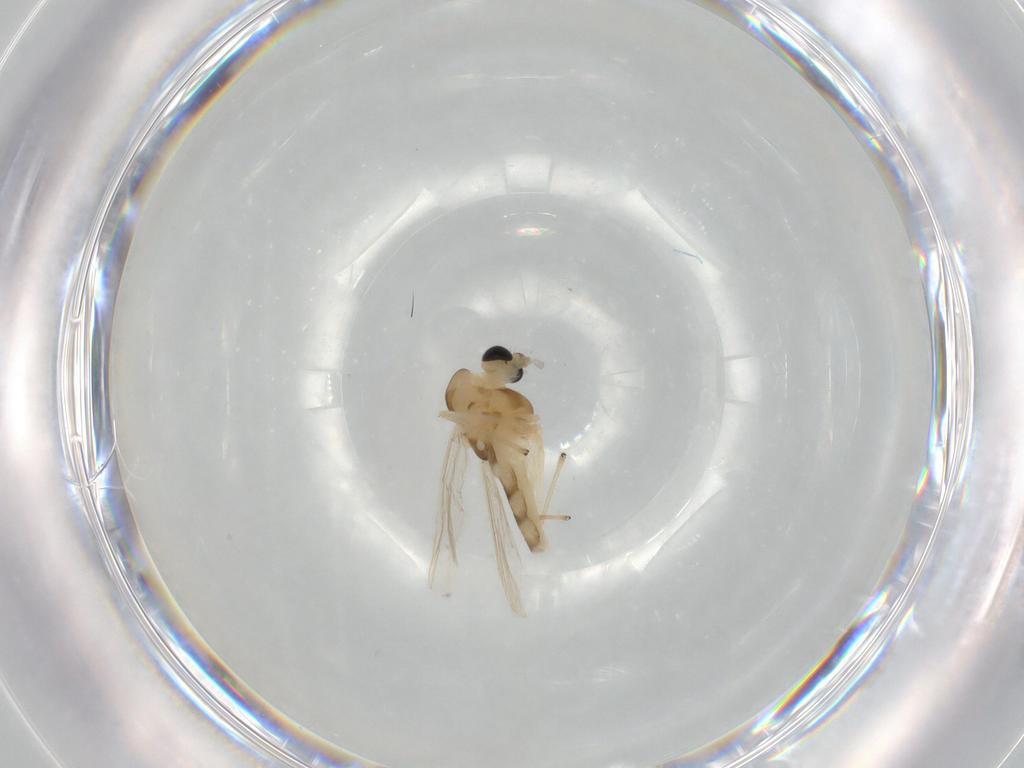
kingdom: Animalia
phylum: Arthropoda
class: Insecta
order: Diptera
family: Chironomidae
